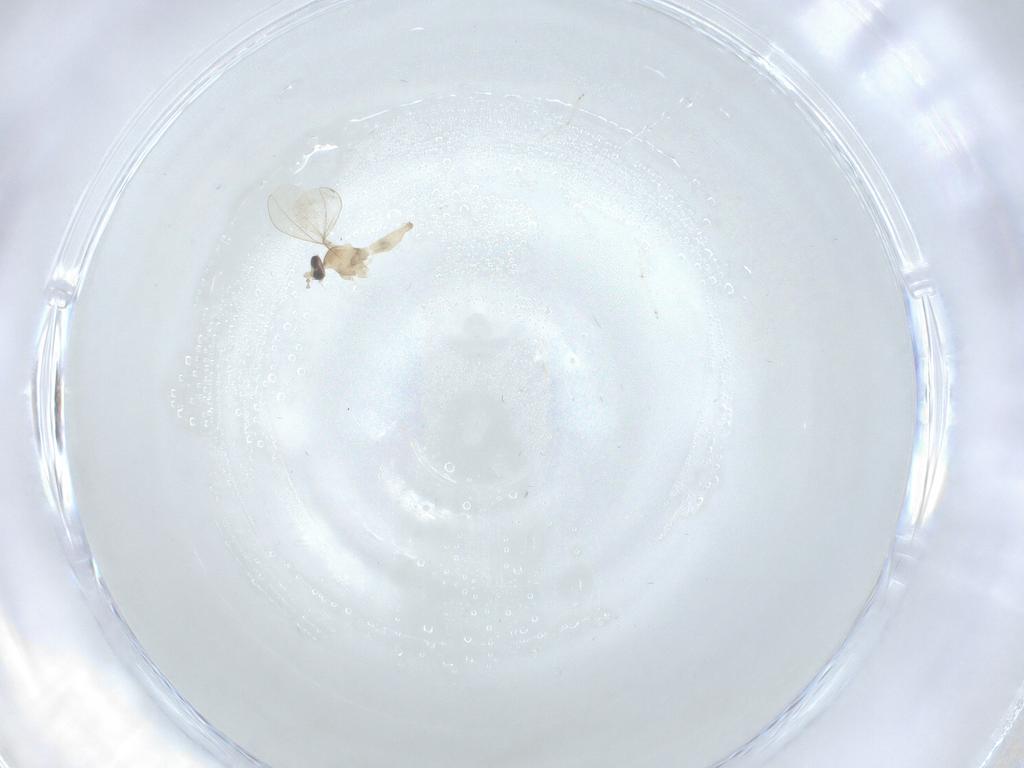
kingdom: Animalia
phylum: Arthropoda
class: Insecta
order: Diptera
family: Cecidomyiidae
